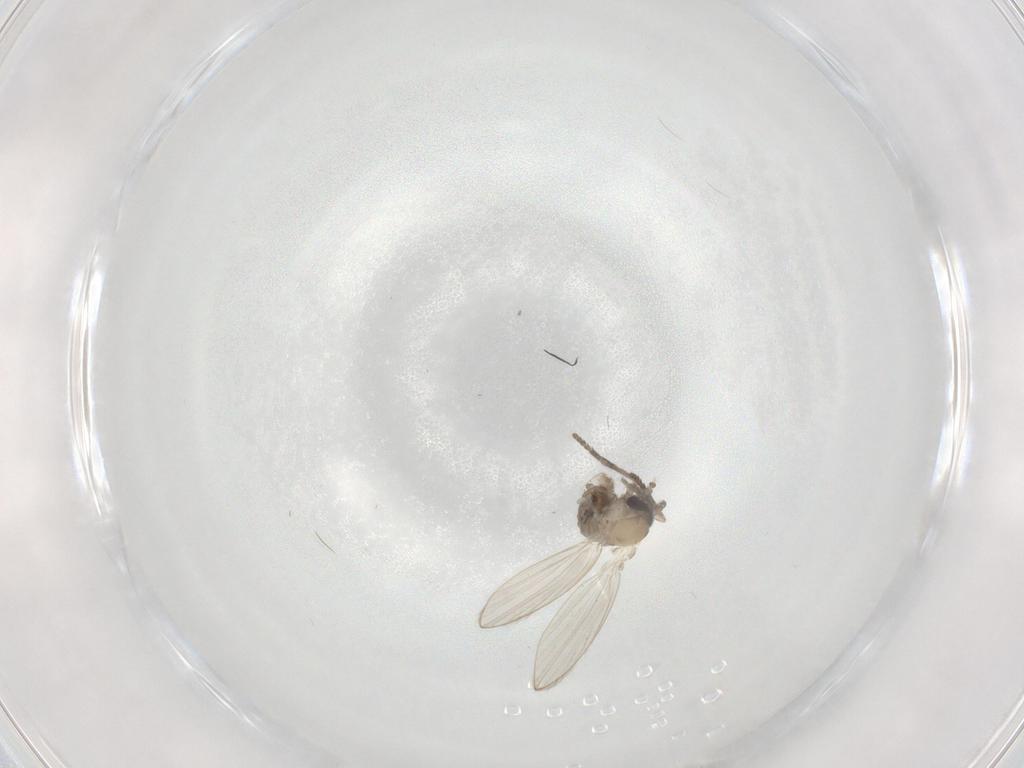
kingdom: Animalia
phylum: Arthropoda
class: Insecta
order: Diptera
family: Psychodidae
